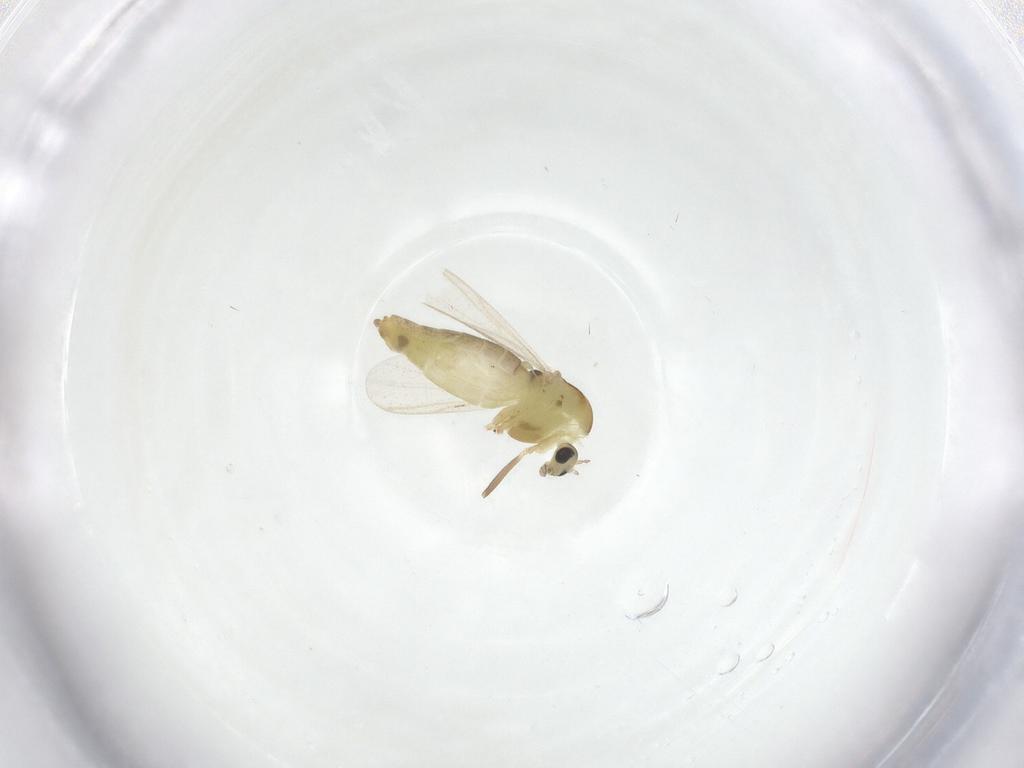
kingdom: Animalia
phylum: Arthropoda
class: Insecta
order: Diptera
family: Chironomidae
